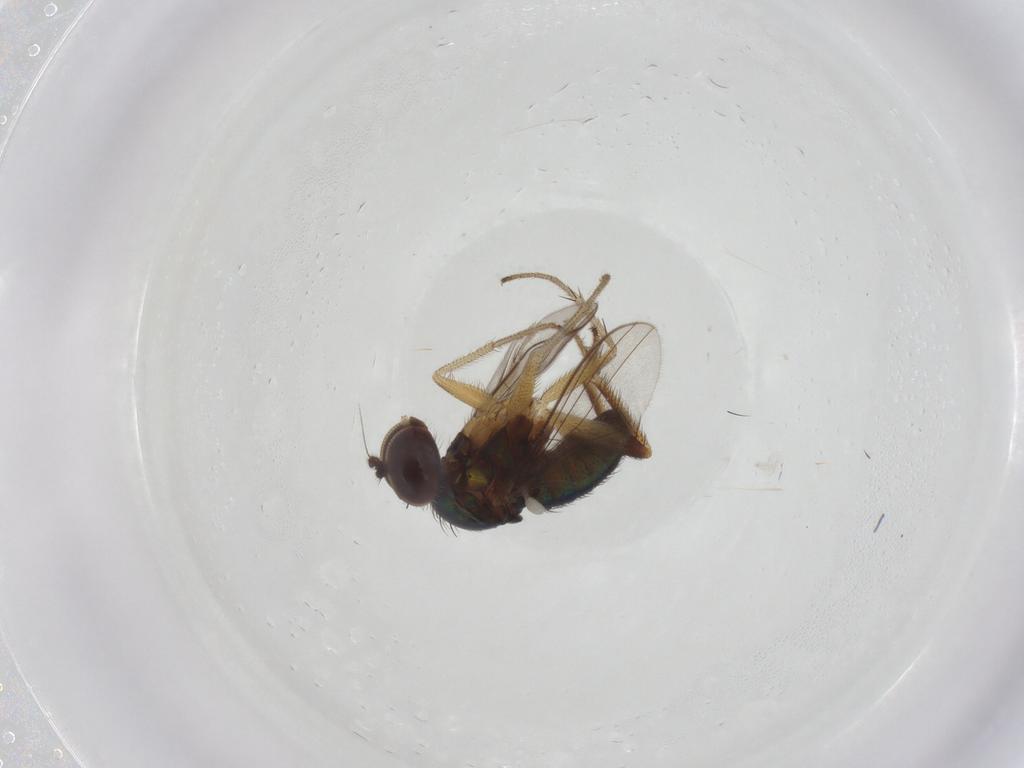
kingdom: Animalia
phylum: Arthropoda
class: Insecta
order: Diptera
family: Dolichopodidae
